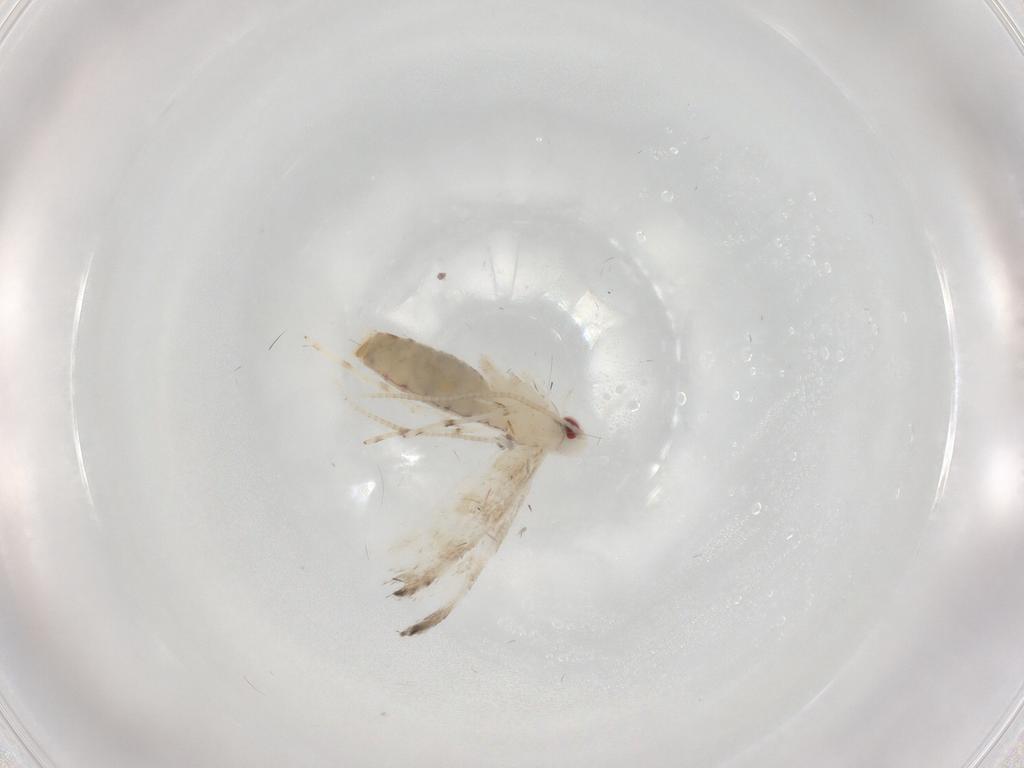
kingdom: Animalia
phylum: Arthropoda
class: Insecta
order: Lepidoptera
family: Gracillariidae
